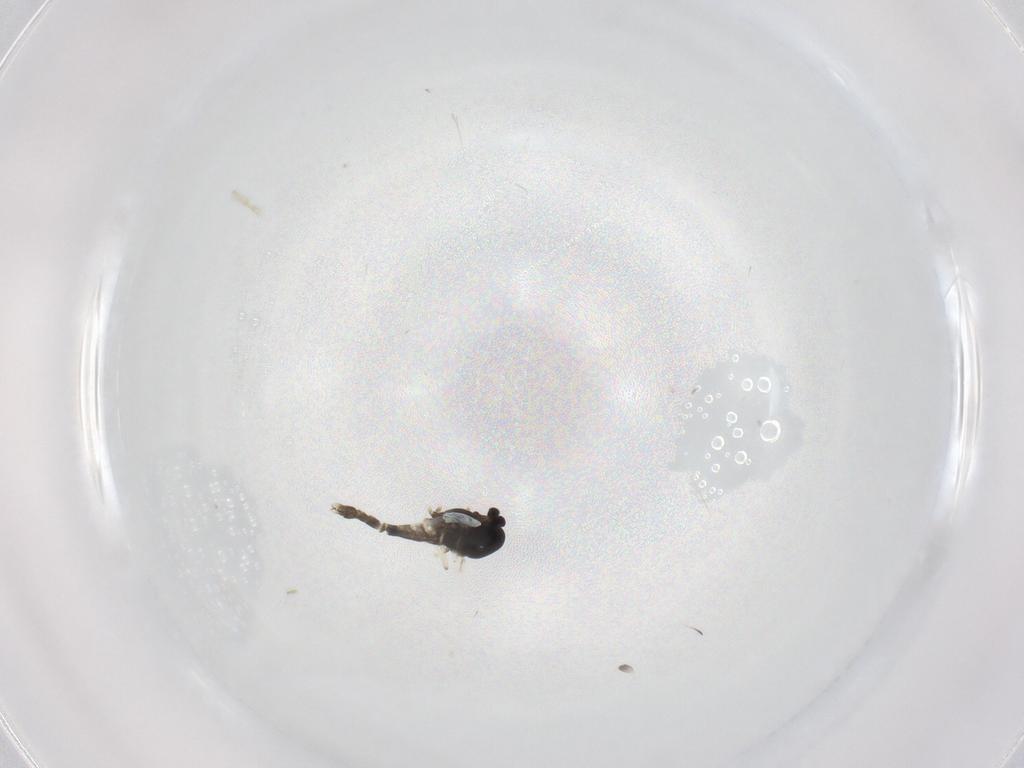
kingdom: Animalia
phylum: Arthropoda
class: Insecta
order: Diptera
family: Chironomidae
